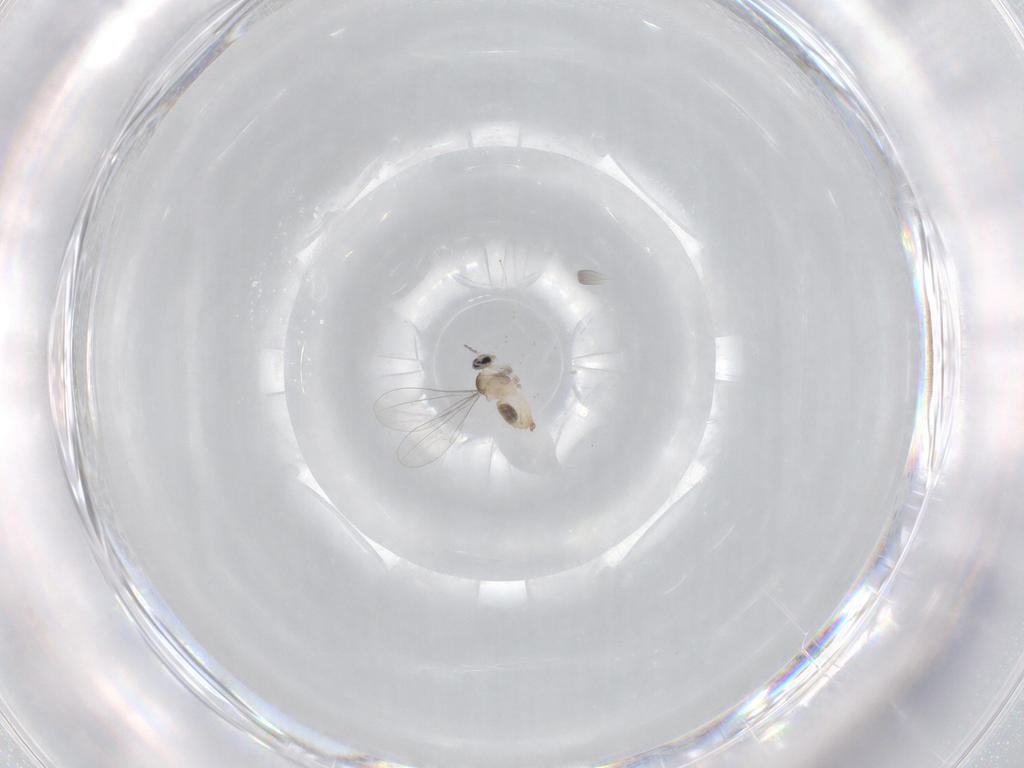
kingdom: Animalia
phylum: Arthropoda
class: Insecta
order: Diptera
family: Cecidomyiidae
